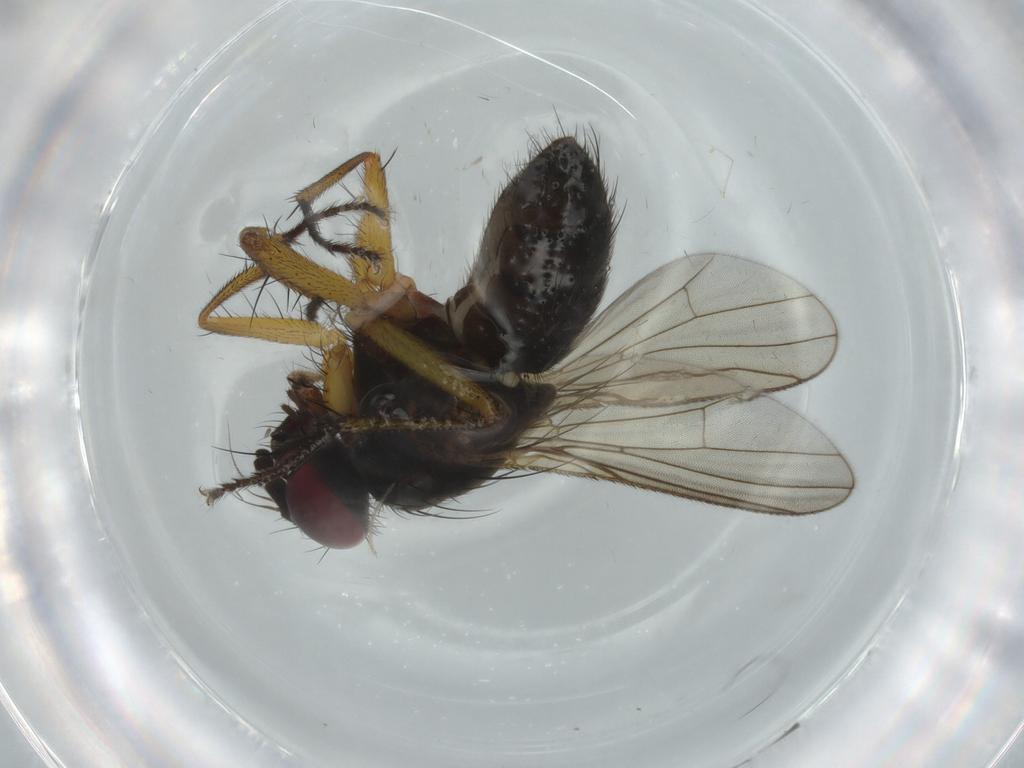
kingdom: Animalia
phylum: Arthropoda
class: Insecta
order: Diptera
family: Muscidae
